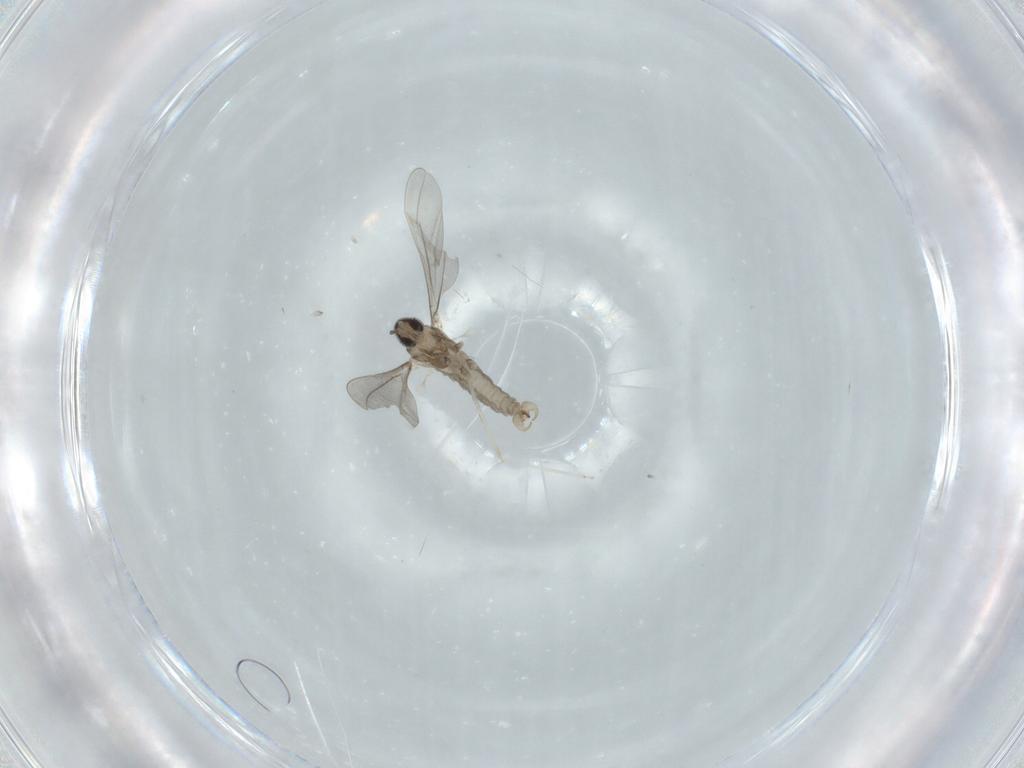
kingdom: Animalia
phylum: Arthropoda
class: Insecta
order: Diptera
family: Cecidomyiidae
